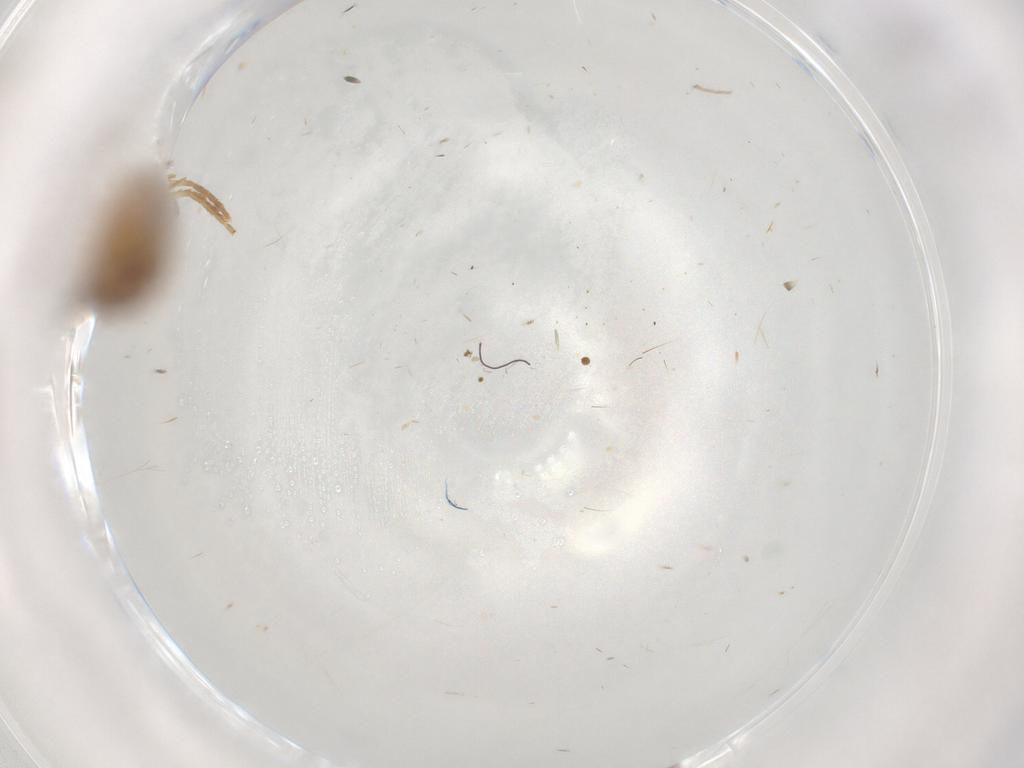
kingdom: Animalia
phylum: Arthropoda
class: Insecta
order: Lepidoptera
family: Cosmopterigidae
